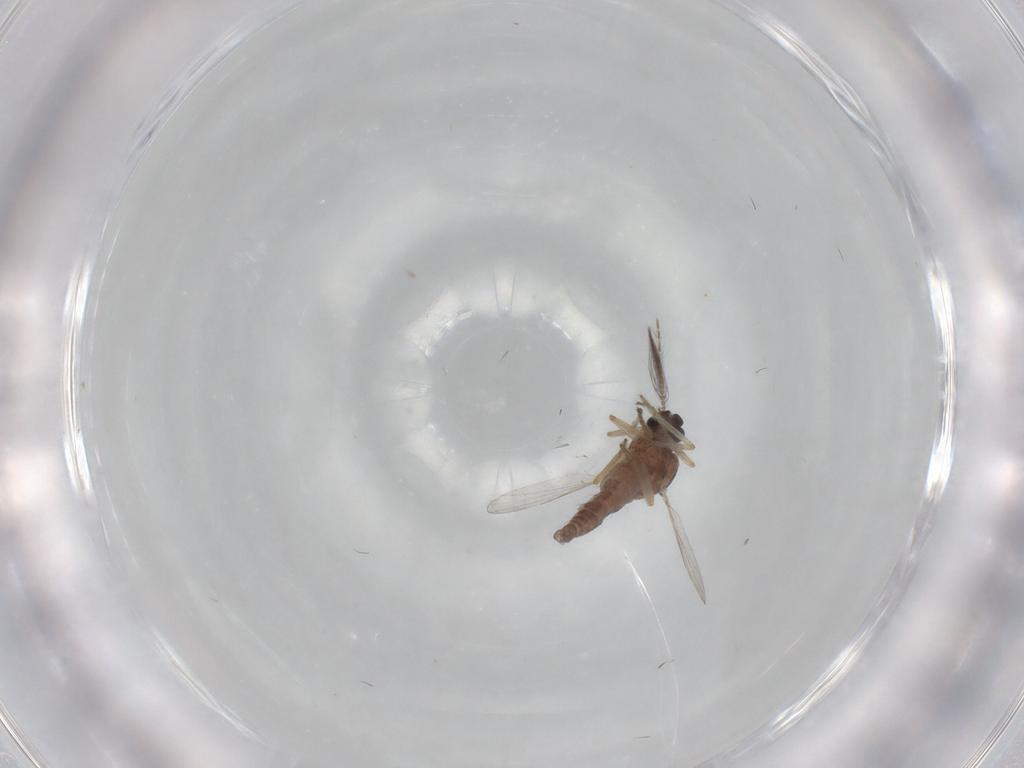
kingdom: Animalia
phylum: Arthropoda
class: Insecta
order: Diptera
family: Ceratopogonidae
